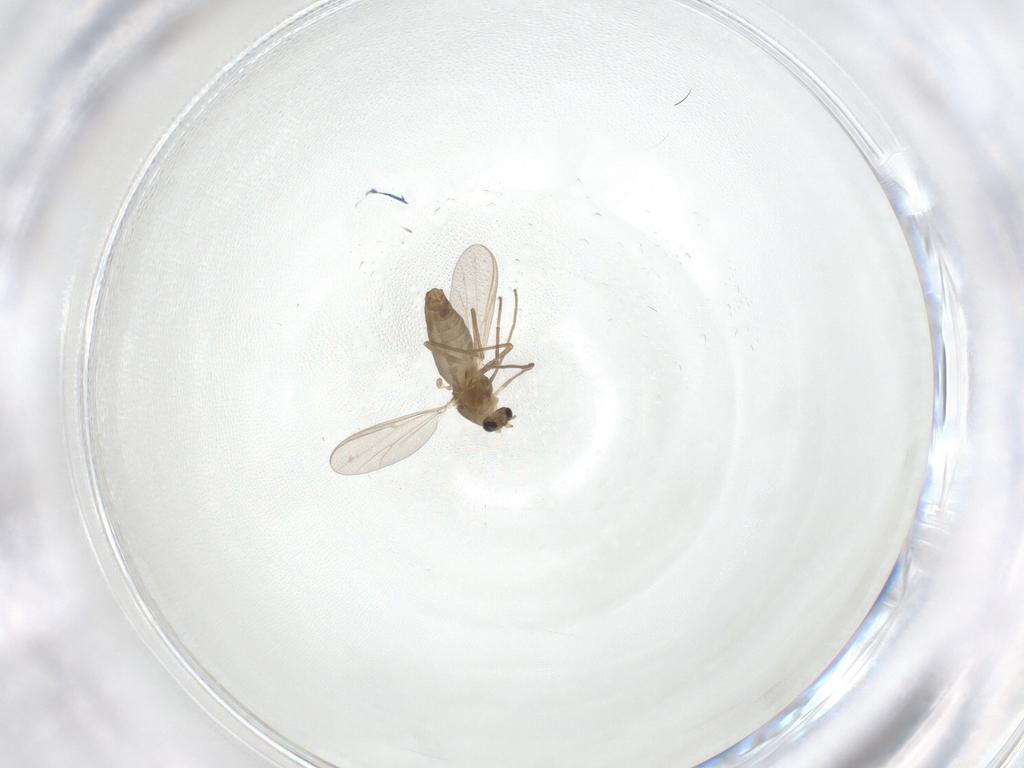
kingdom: Animalia
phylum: Arthropoda
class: Insecta
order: Diptera
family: Chironomidae
